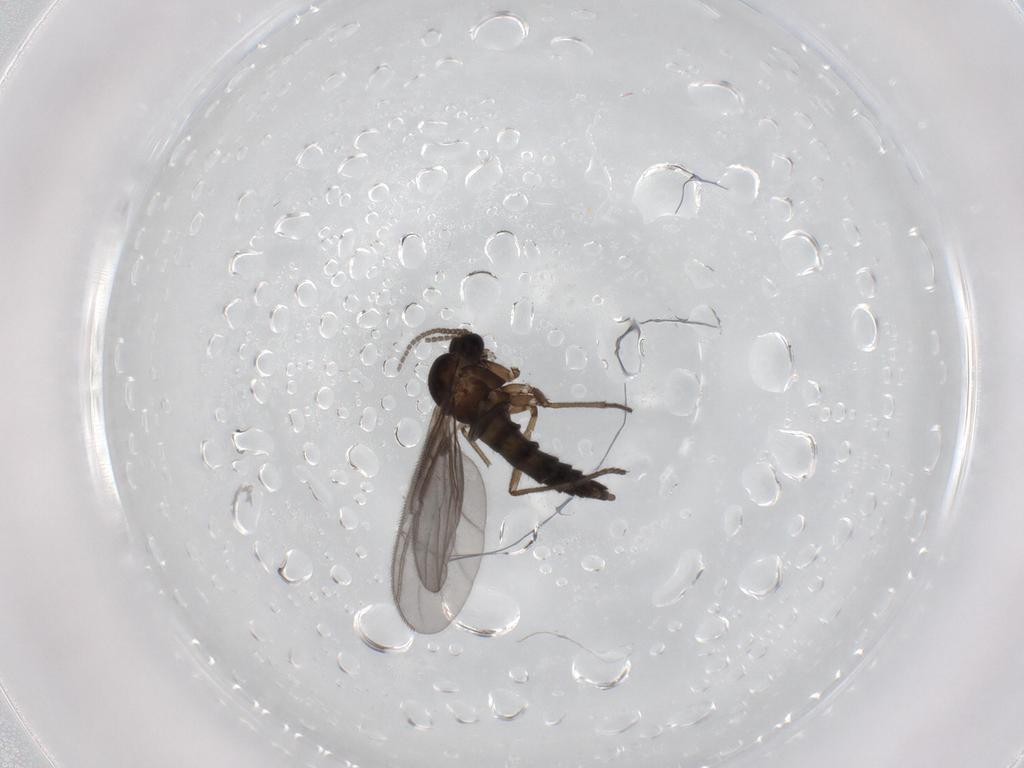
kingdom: Animalia
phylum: Arthropoda
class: Insecta
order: Diptera
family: Sciaridae
